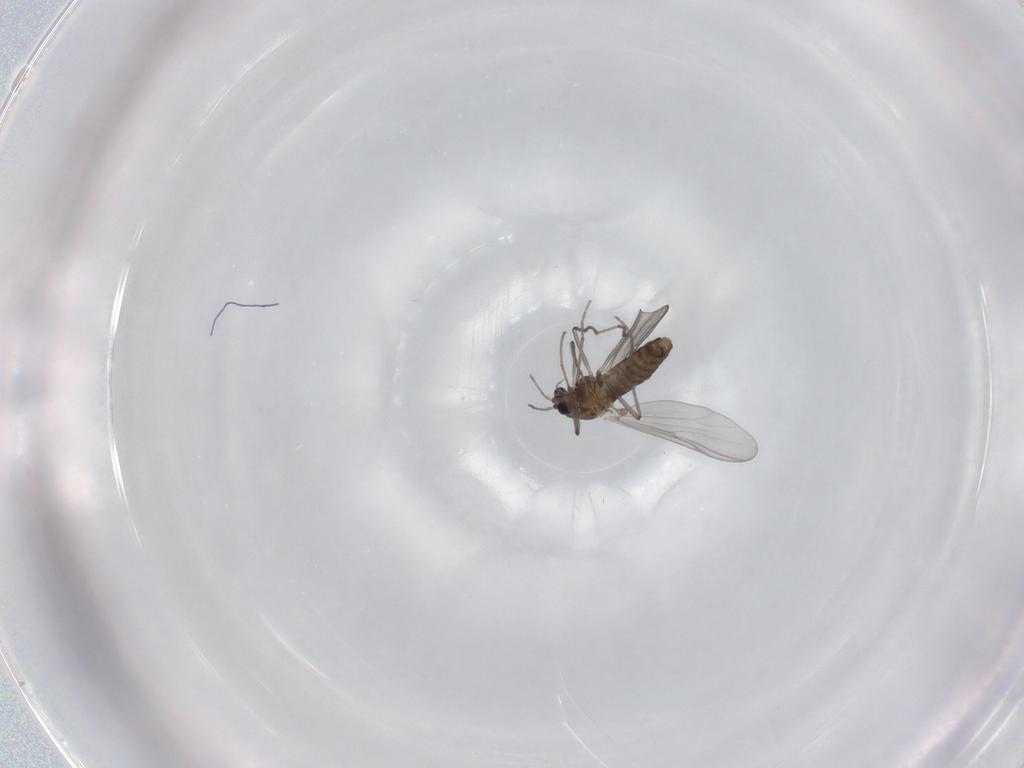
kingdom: Animalia
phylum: Arthropoda
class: Insecta
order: Diptera
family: Chironomidae
